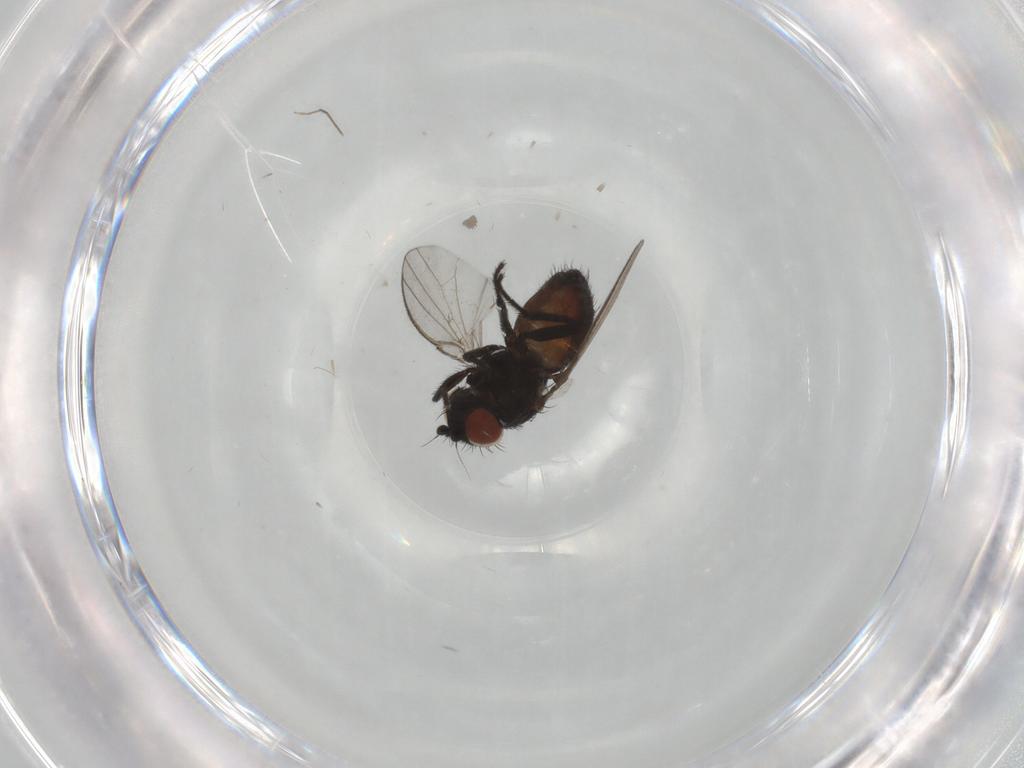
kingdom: Animalia
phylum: Arthropoda
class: Insecta
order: Diptera
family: Milichiidae
